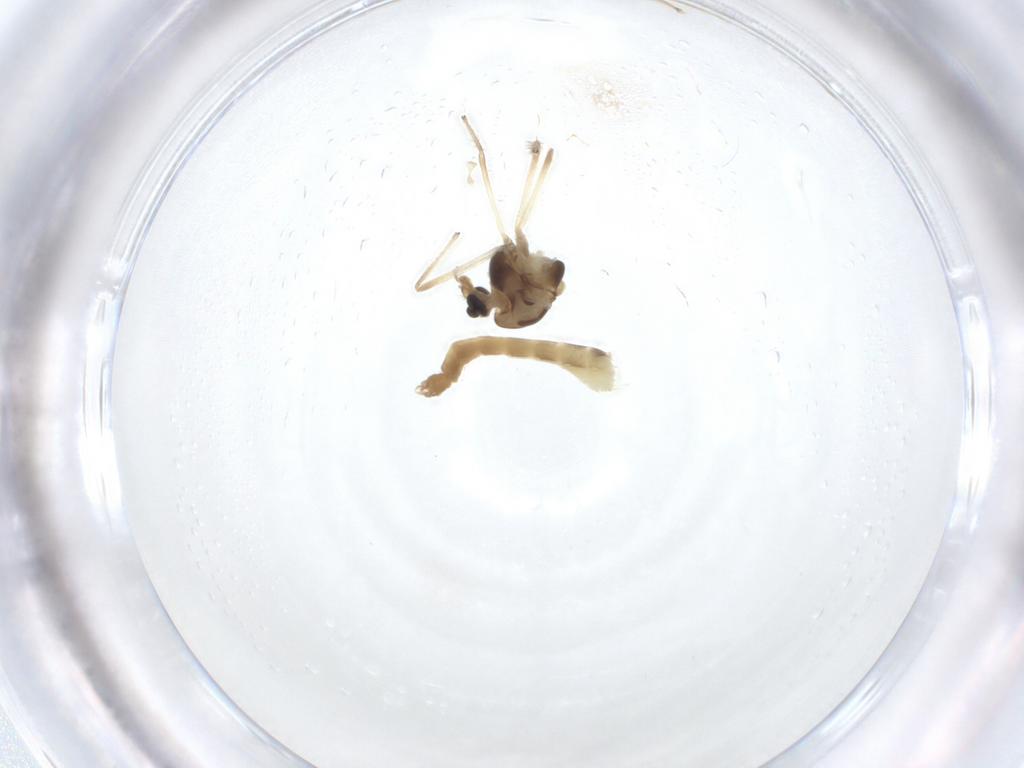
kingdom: Animalia
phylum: Arthropoda
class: Insecta
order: Diptera
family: Chironomidae
